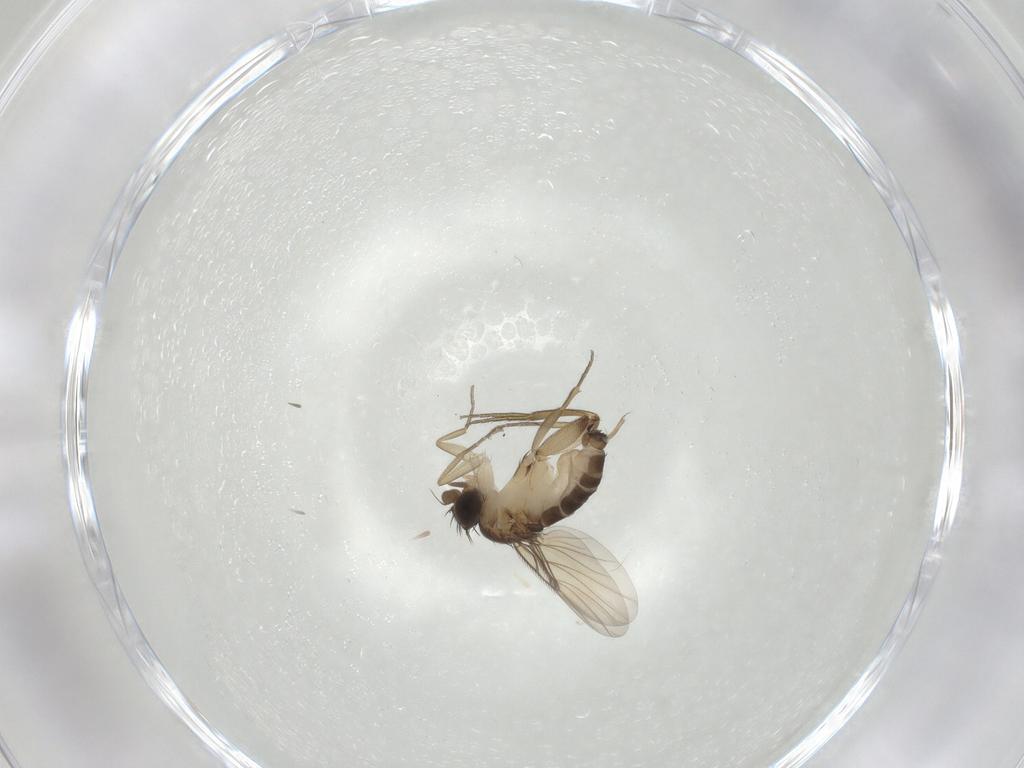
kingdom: Animalia
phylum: Arthropoda
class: Insecta
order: Diptera
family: Phoridae
